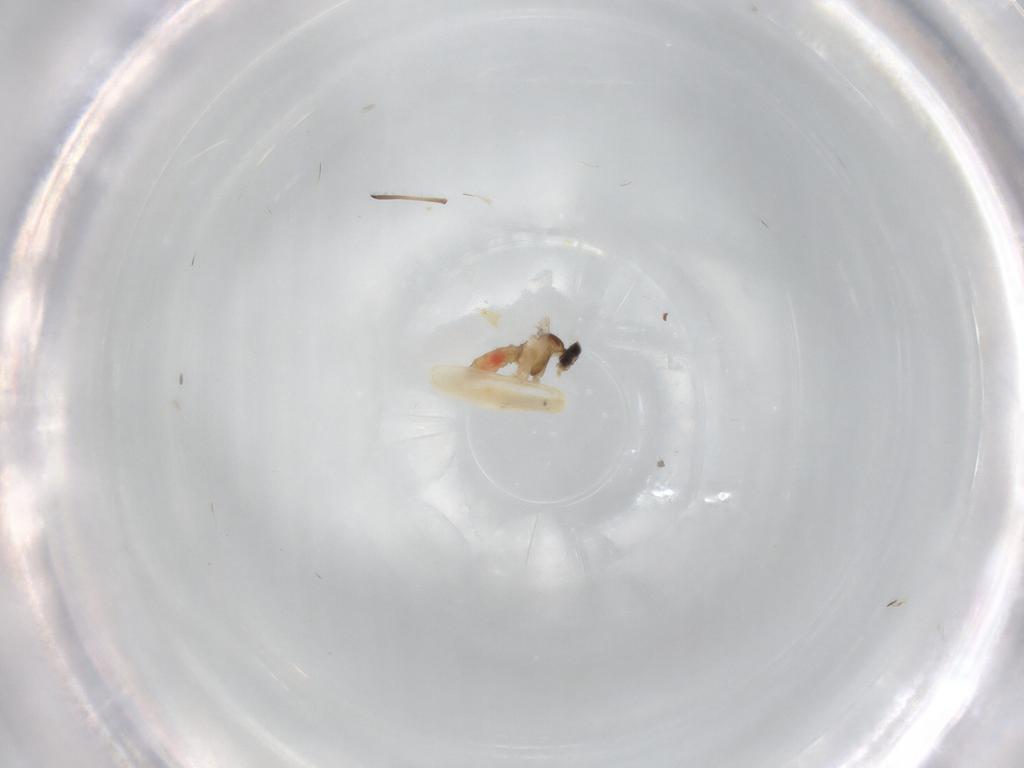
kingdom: Animalia
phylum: Arthropoda
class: Insecta
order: Diptera
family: Cecidomyiidae
